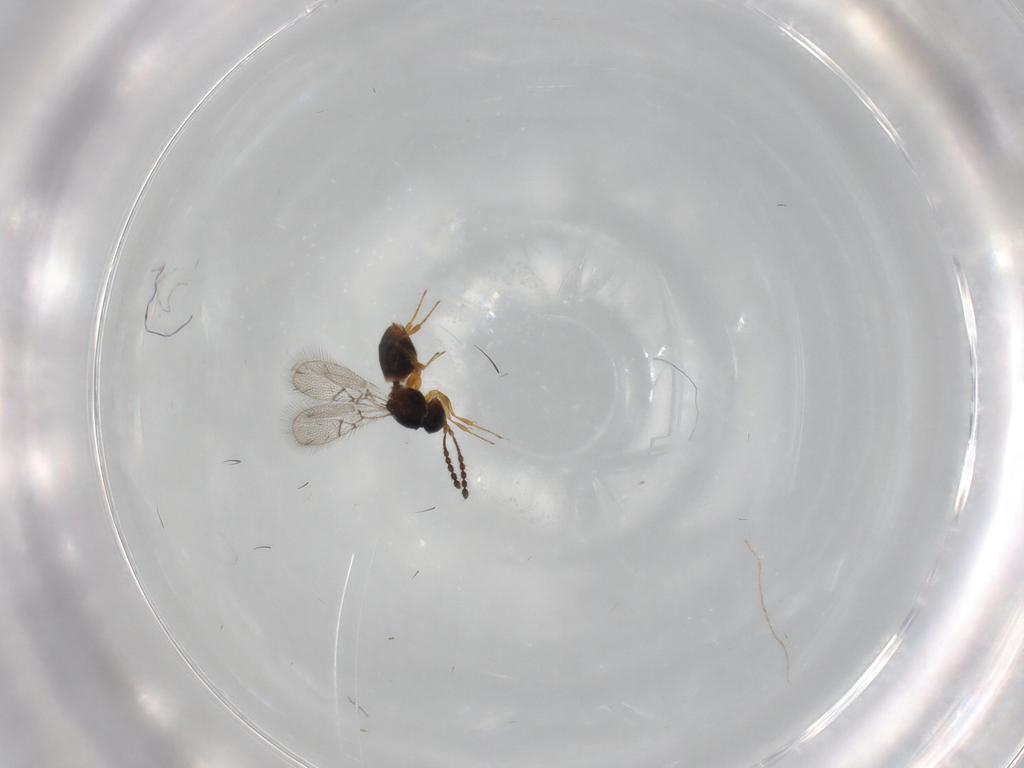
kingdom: Animalia
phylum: Arthropoda
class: Insecta
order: Hymenoptera
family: Figitidae
